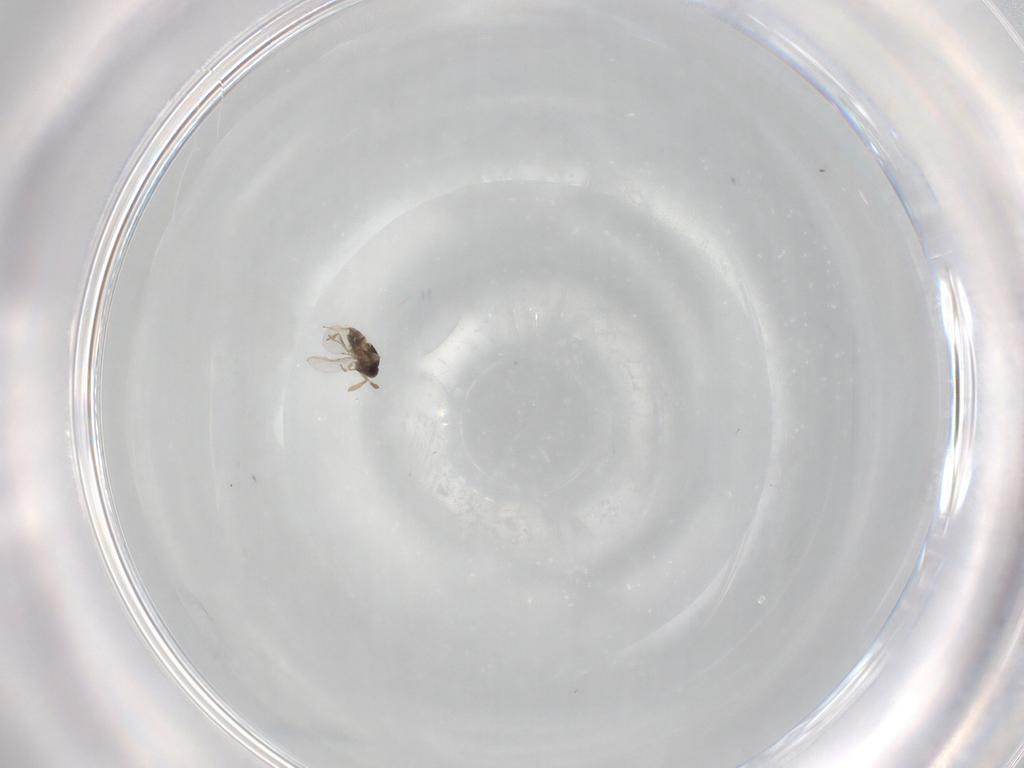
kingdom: Animalia
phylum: Arthropoda
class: Insecta
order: Hymenoptera
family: Encyrtidae
